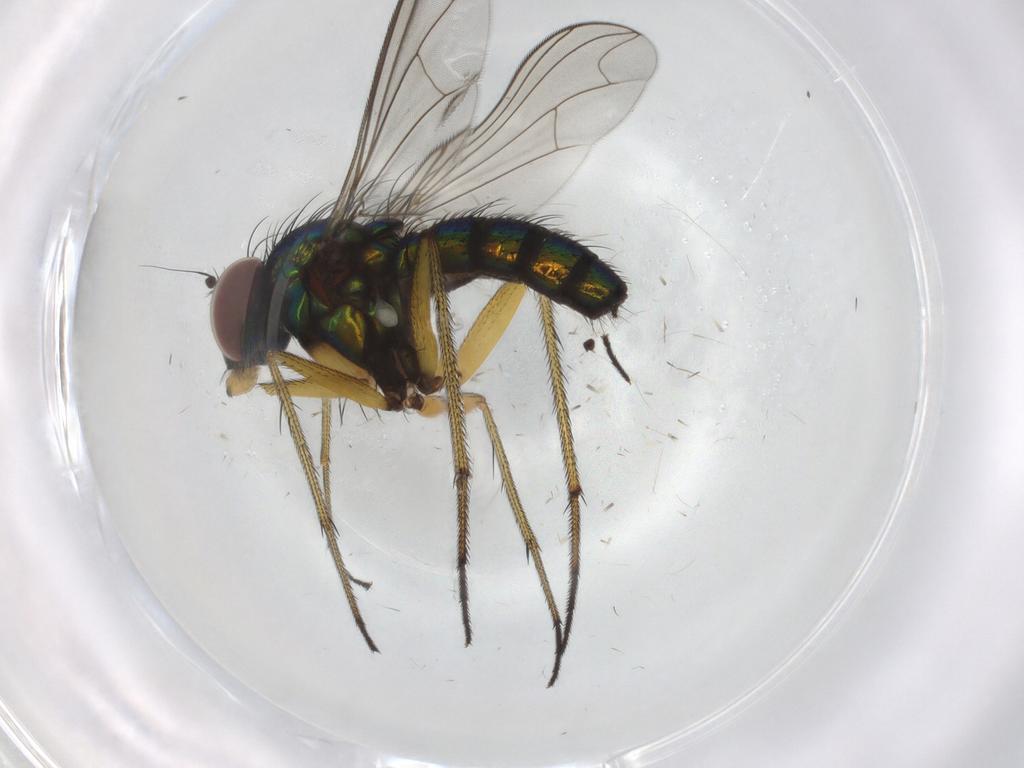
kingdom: Animalia
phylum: Arthropoda
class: Insecta
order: Diptera
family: Dolichopodidae
